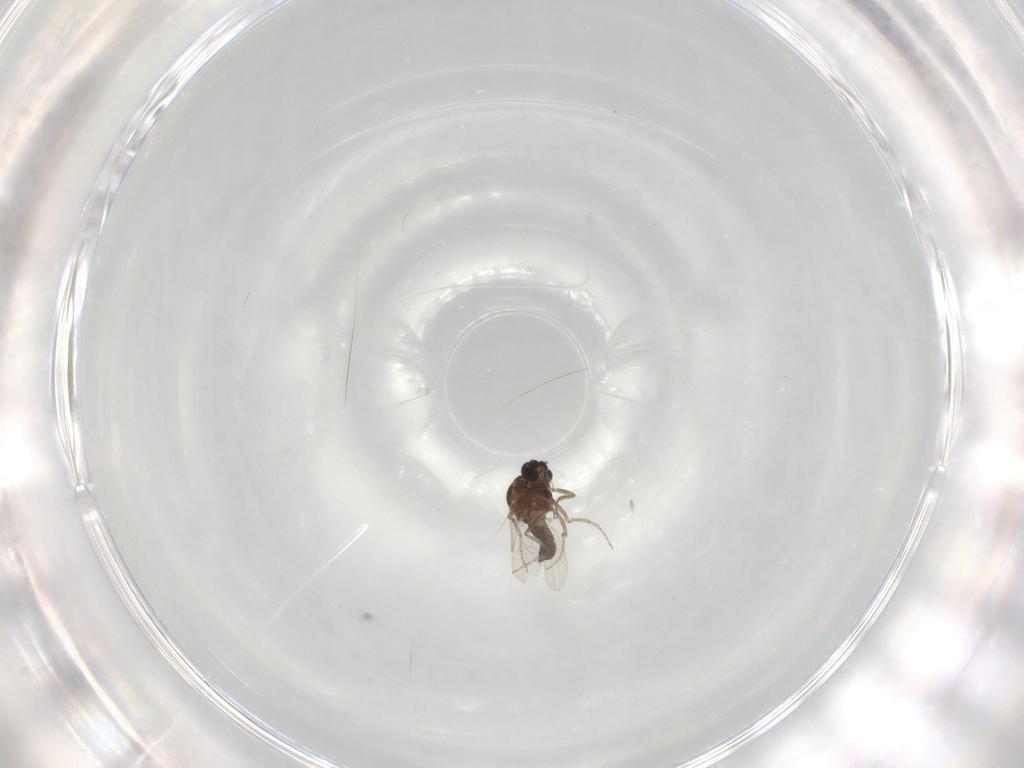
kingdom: Animalia
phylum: Arthropoda
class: Insecta
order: Diptera
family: Ceratopogonidae
